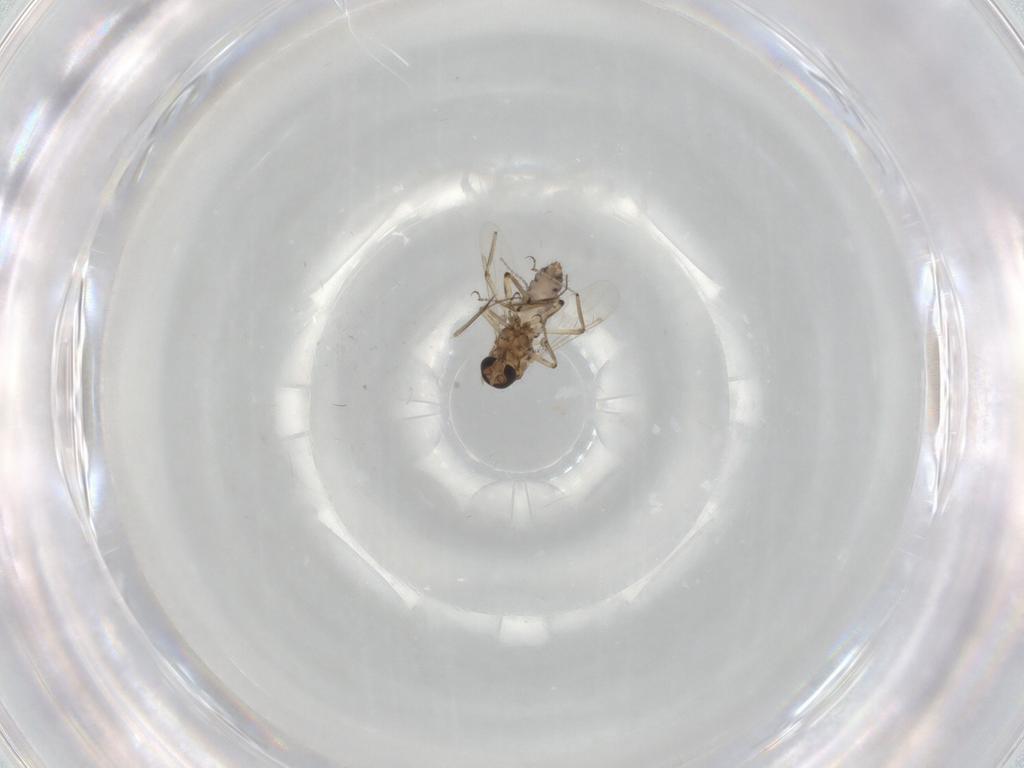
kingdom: Animalia
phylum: Arthropoda
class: Insecta
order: Diptera
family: Ceratopogonidae
